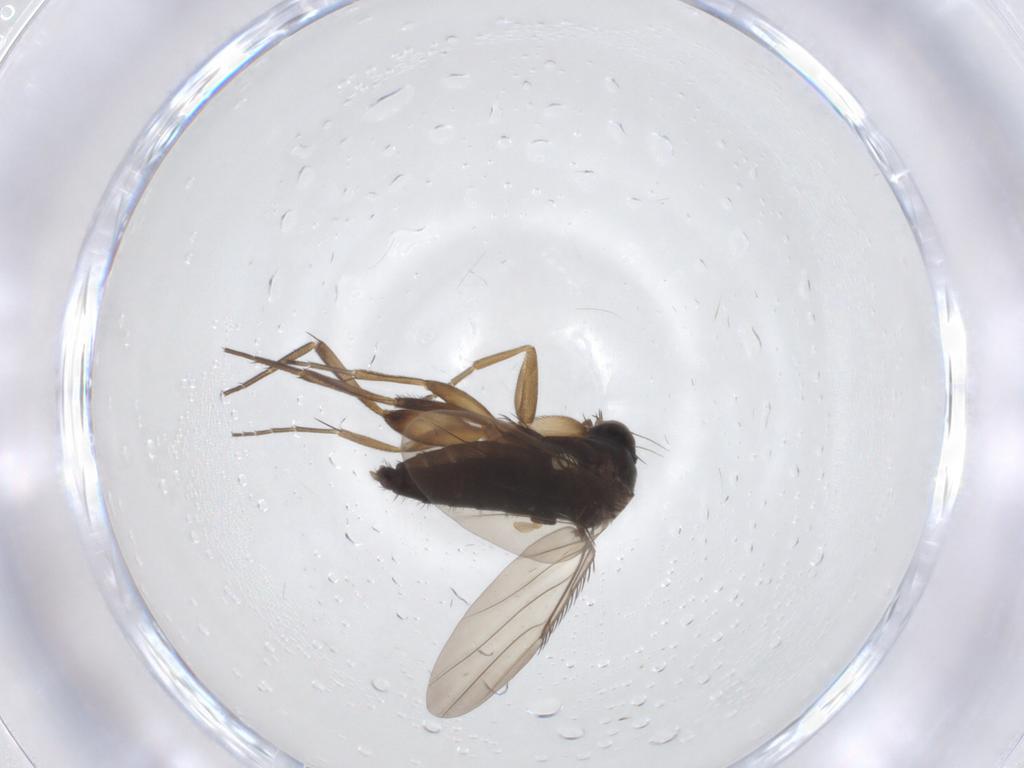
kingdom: Animalia
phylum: Arthropoda
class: Insecta
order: Diptera
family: Phoridae
